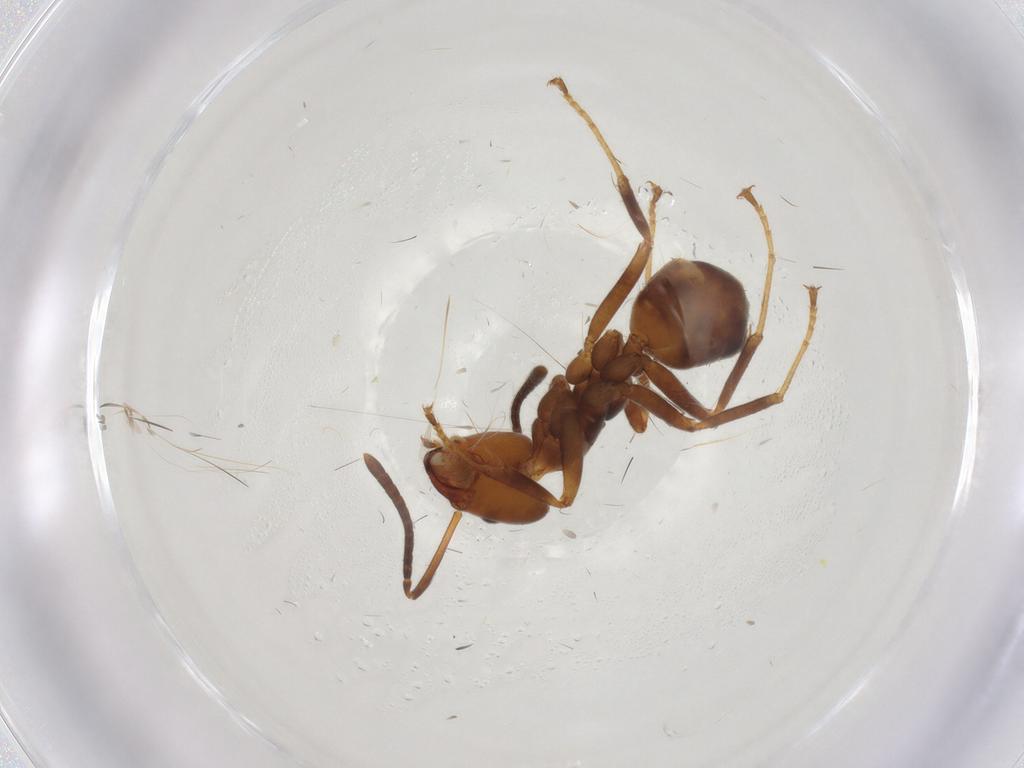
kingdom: Animalia
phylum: Arthropoda
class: Insecta
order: Hymenoptera
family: Formicidae
